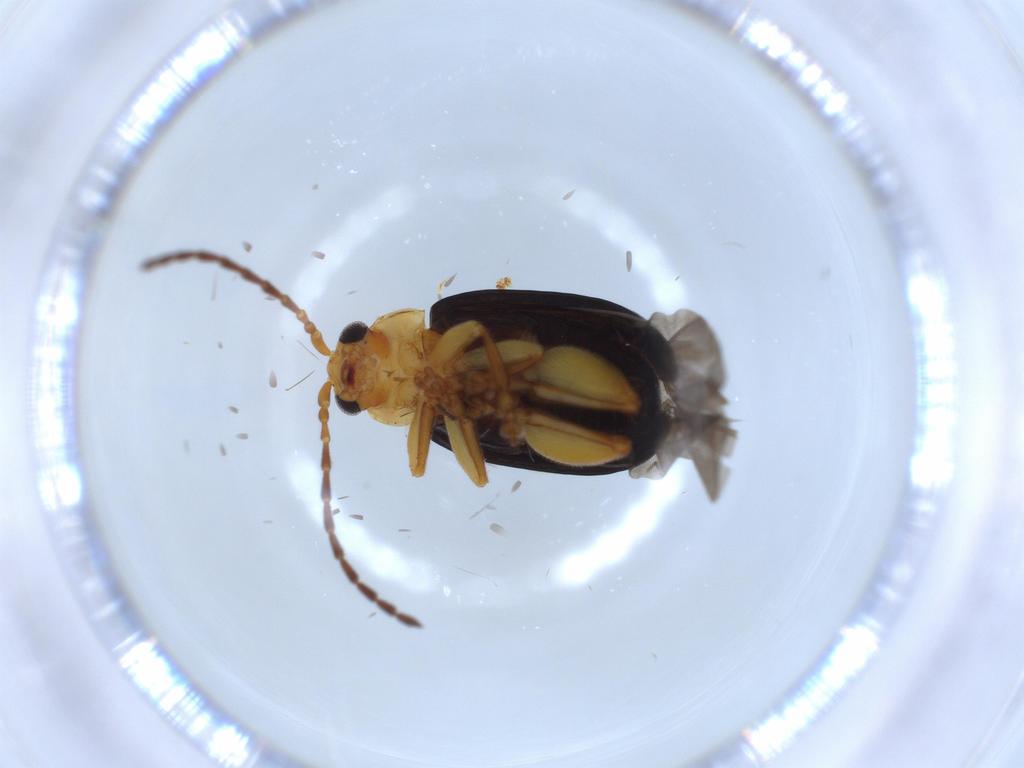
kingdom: Animalia
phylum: Arthropoda
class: Insecta
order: Coleoptera
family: Chrysomelidae
